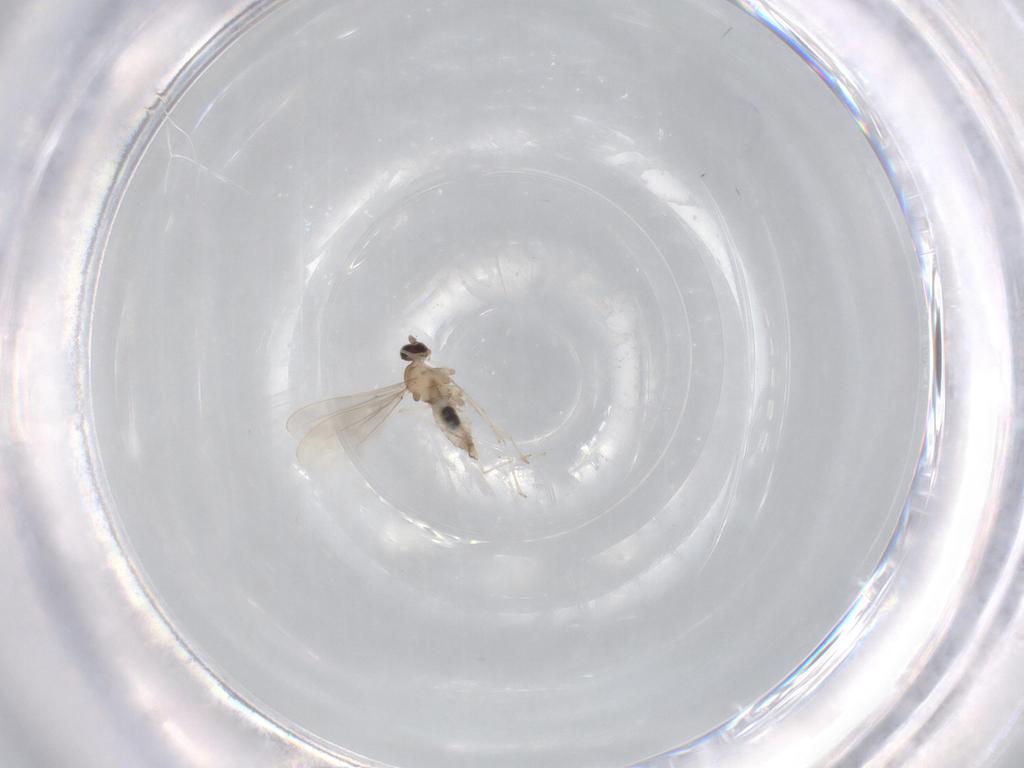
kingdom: Animalia
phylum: Arthropoda
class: Insecta
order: Diptera
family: Cecidomyiidae
